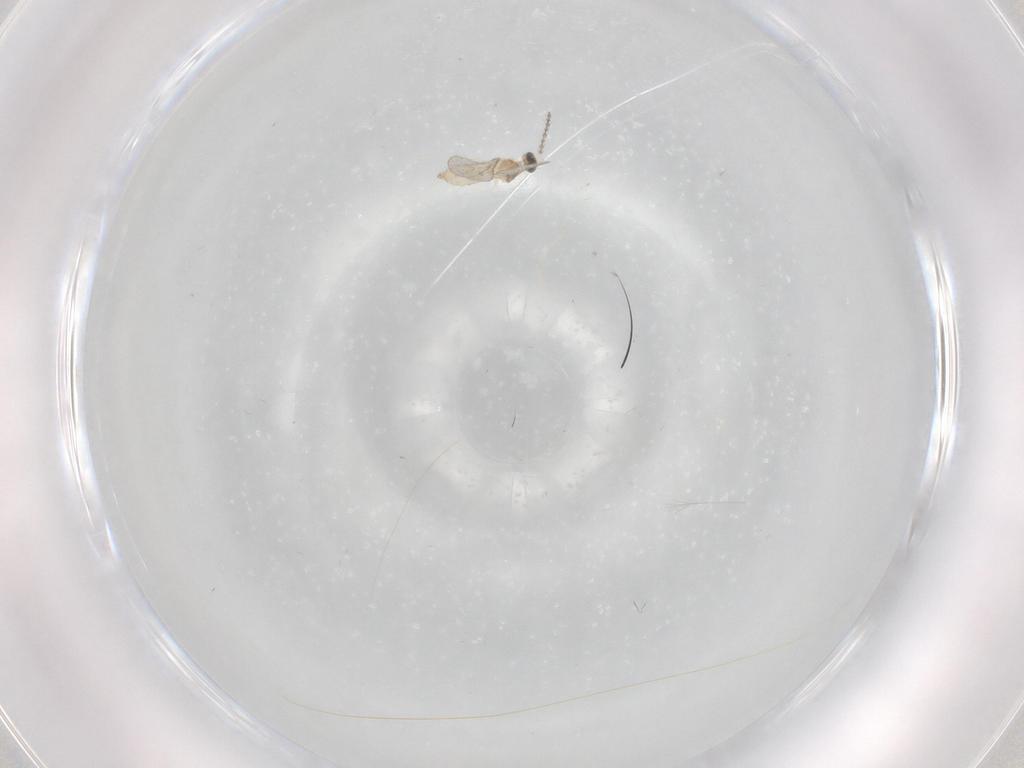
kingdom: Animalia
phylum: Arthropoda
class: Insecta
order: Diptera
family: Cecidomyiidae
